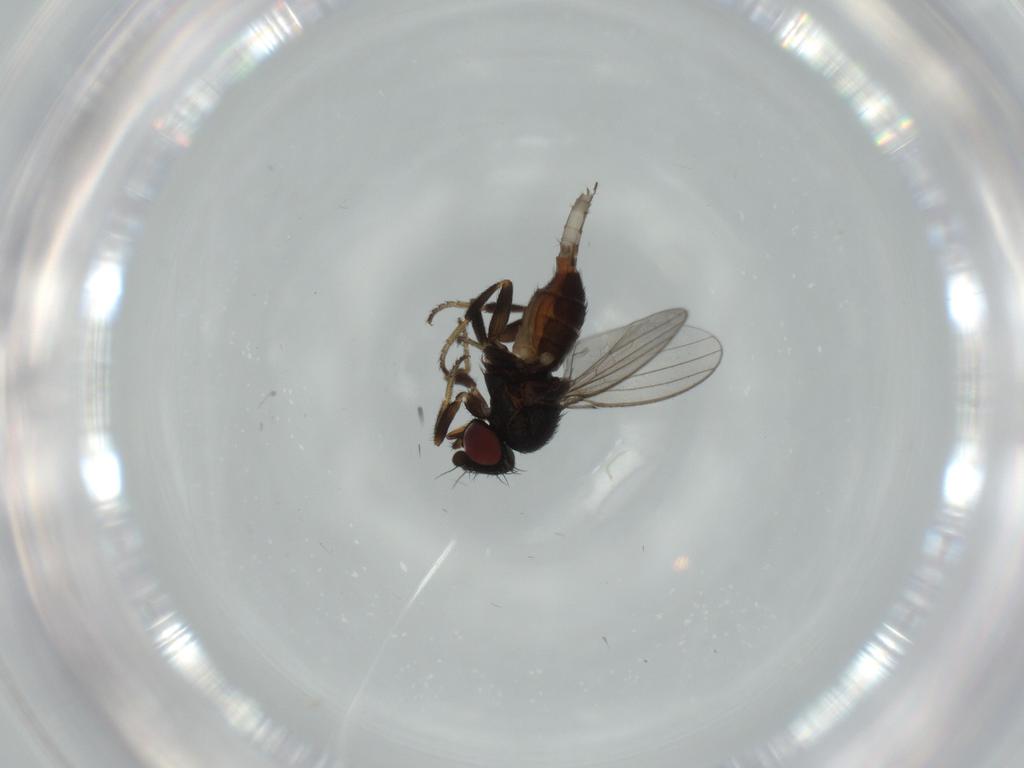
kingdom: Animalia
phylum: Arthropoda
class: Insecta
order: Diptera
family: Milichiidae
